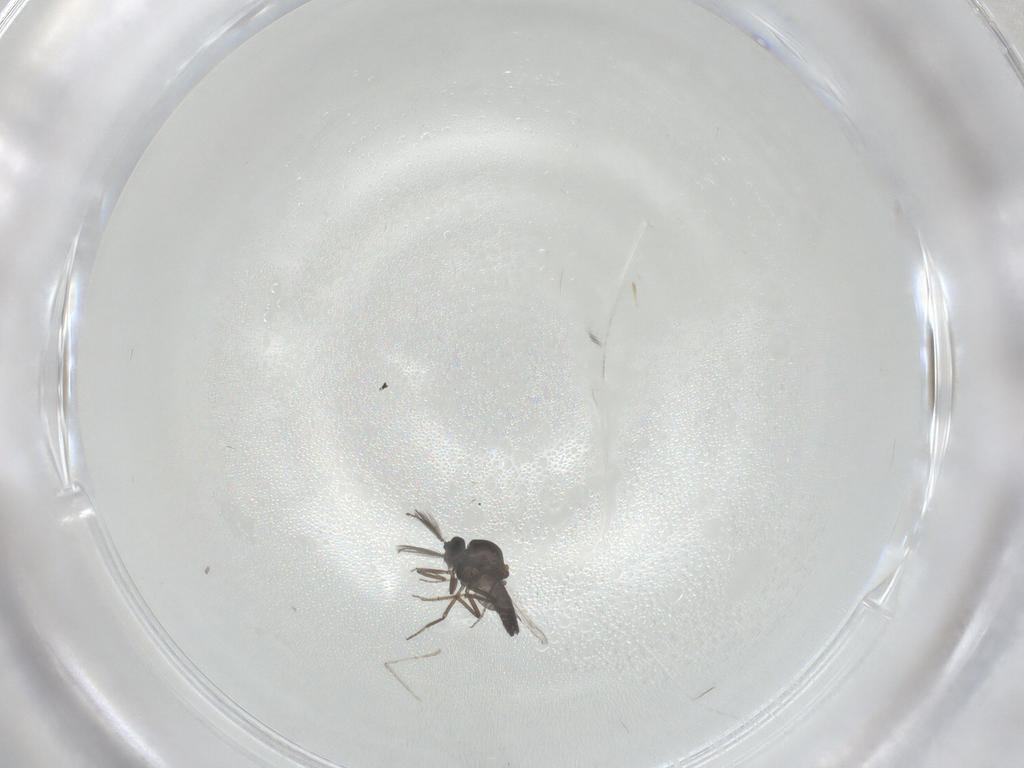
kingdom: Animalia
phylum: Arthropoda
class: Insecta
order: Diptera
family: Ceratopogonidae
